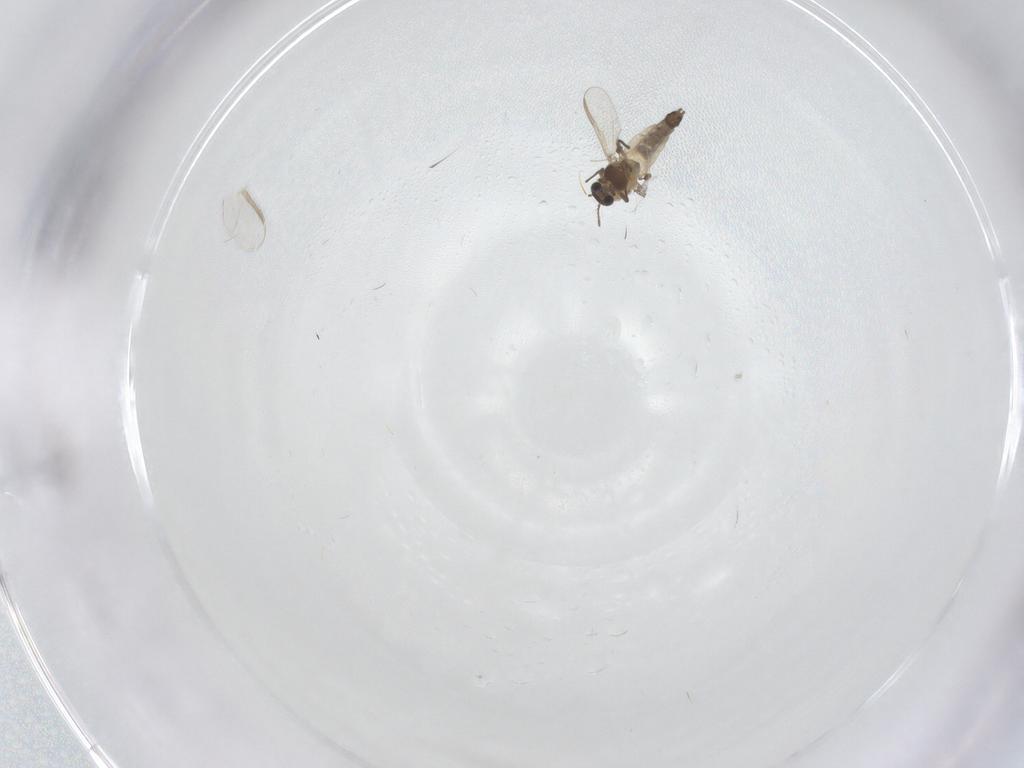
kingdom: Animalia
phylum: Arthropoda
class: Insecta
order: Diptera
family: Chironomidae
